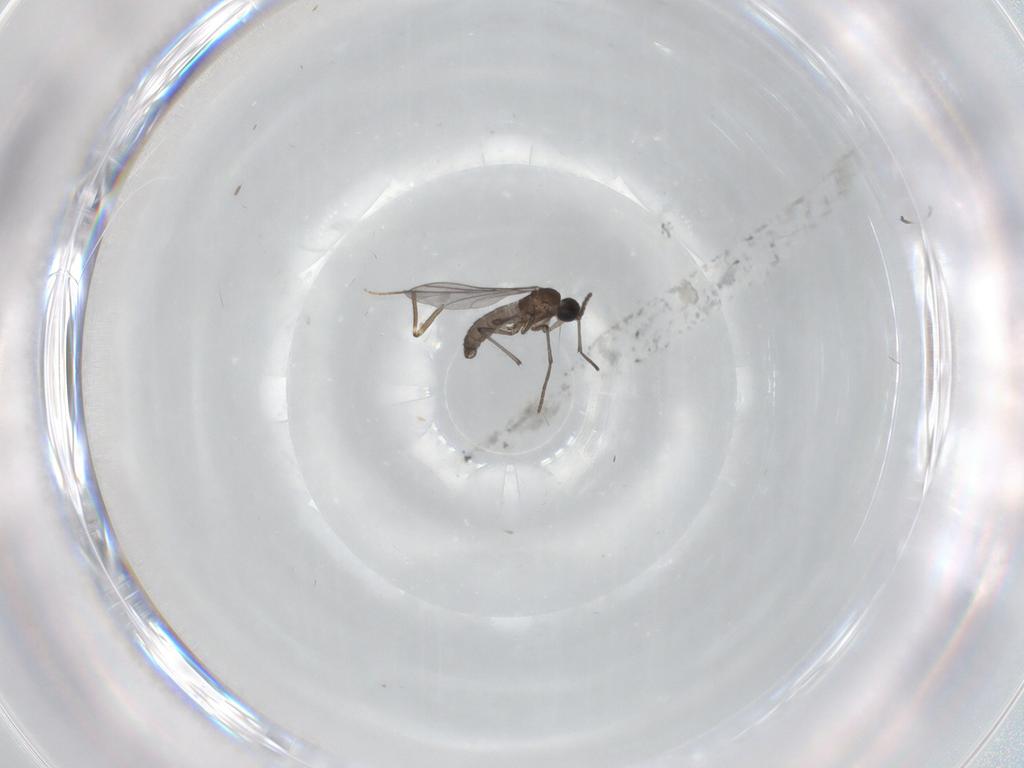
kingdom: Animalia
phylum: Arthropoda
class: Insecta
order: Diptera
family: Sciaridae
